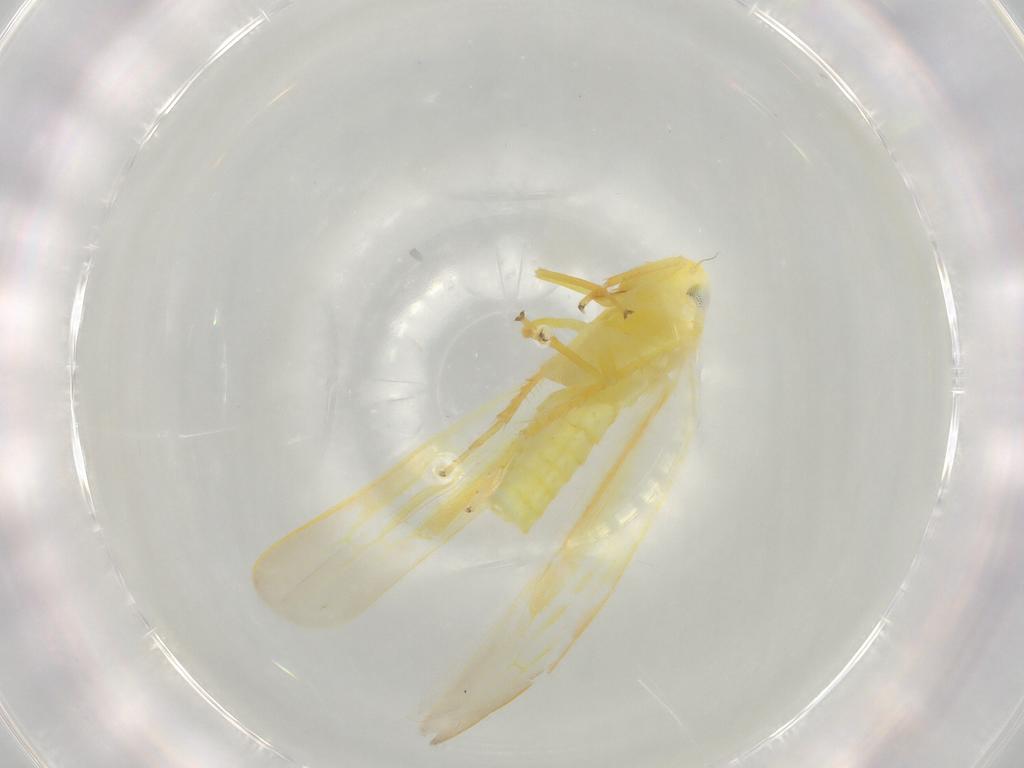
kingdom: Animalia
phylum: Arthropoda
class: Insecta
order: Hemiptera
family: Cicadellidae
